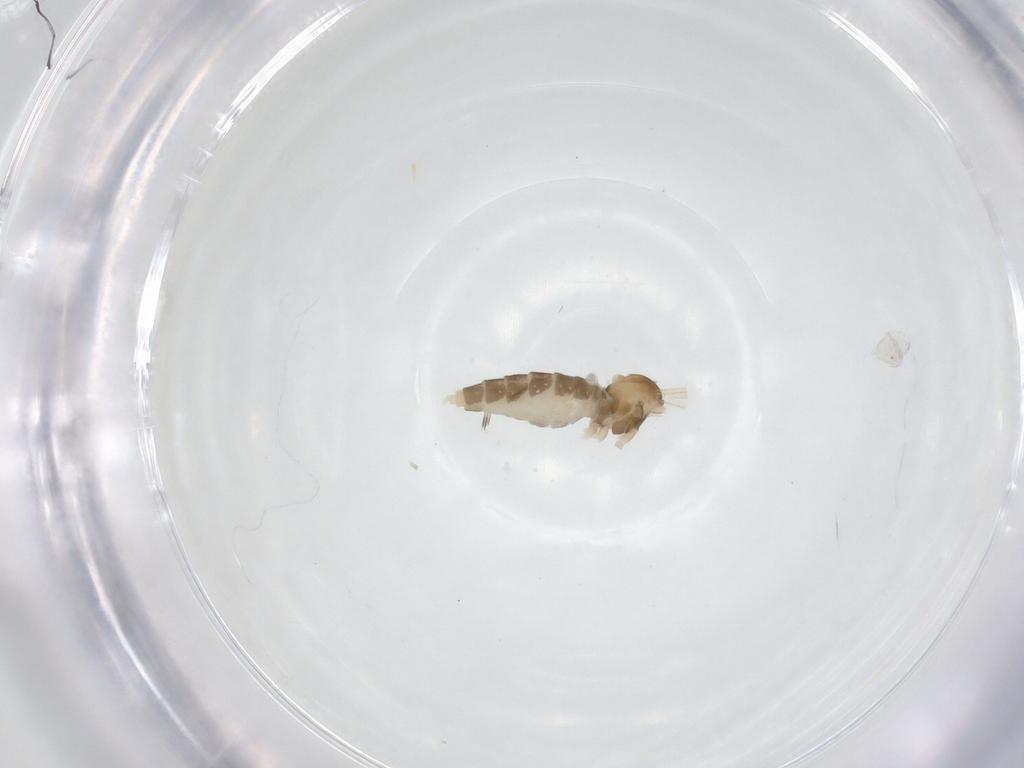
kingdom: Animalia
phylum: Arthropoda
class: Insecta
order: Diptera
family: Cecidomyiidae
